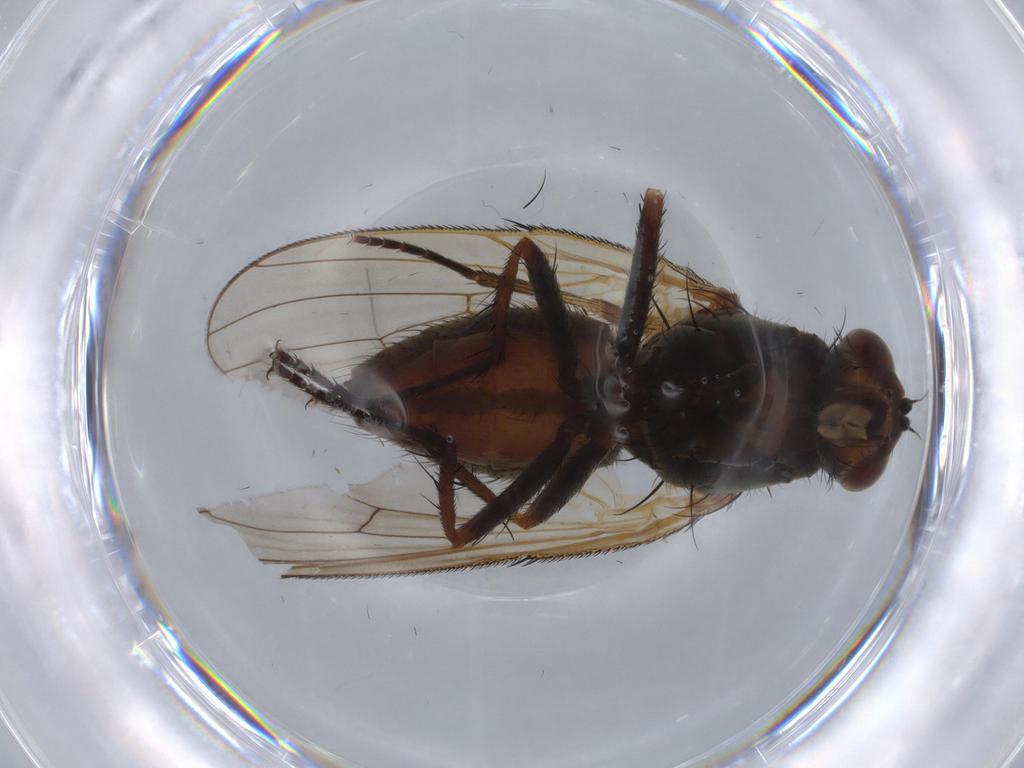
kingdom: Animalia
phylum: Arthropoda
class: Insecta
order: Diptera
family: Anthomyiidae
